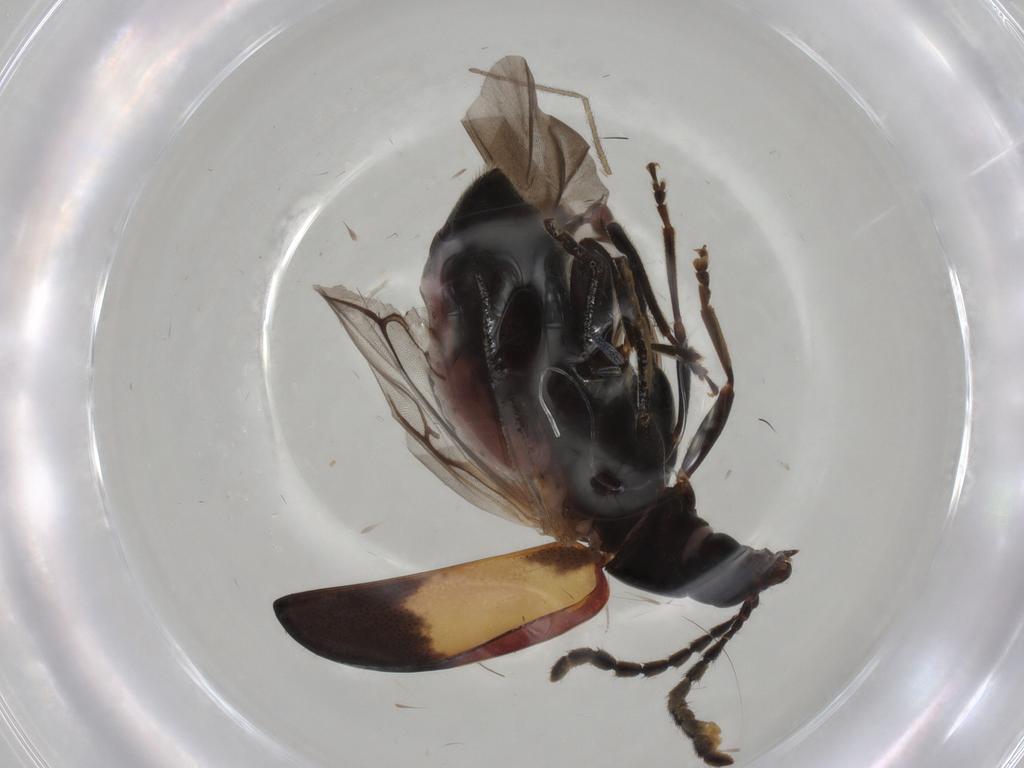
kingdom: Animalia
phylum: Arthropoda
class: Insecta
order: Coleoptera
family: Chrysomelidae
